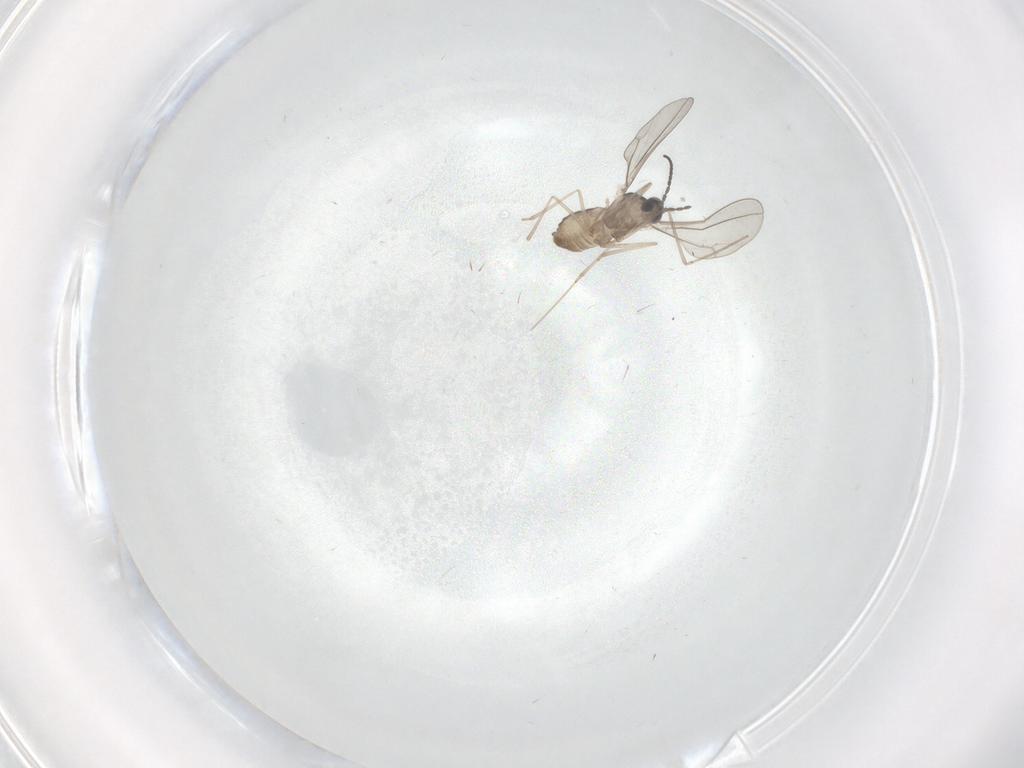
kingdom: Animalia
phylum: Arthropoda
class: Insecta
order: Diptera
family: Cecidomyiidae
